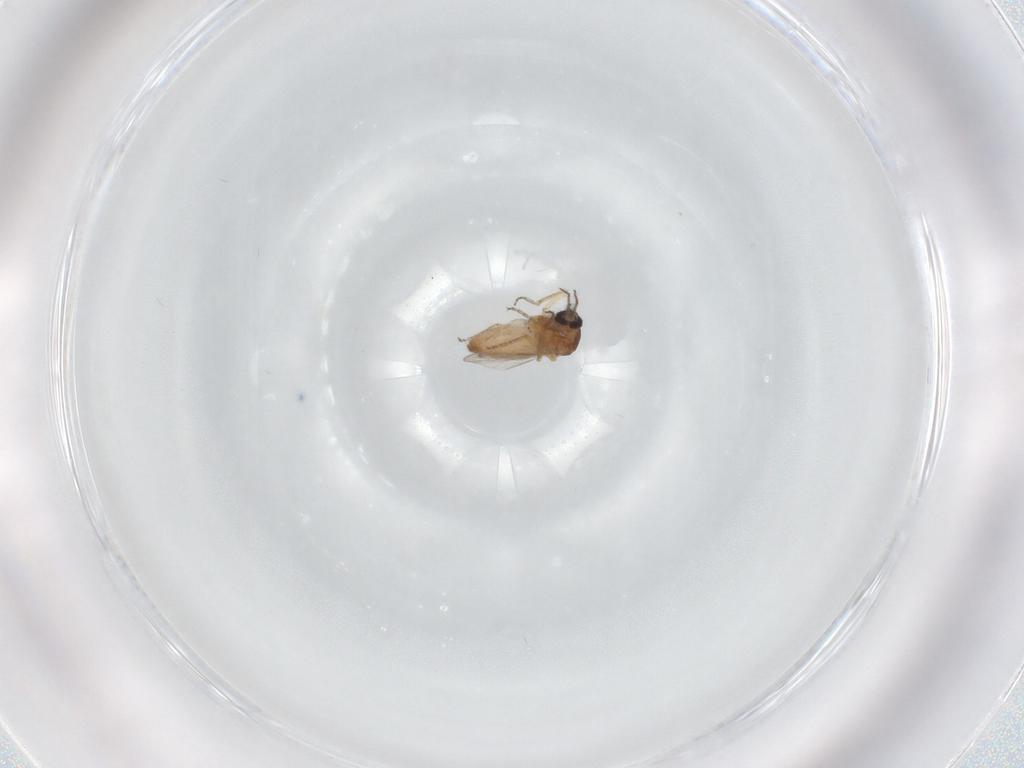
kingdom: Animalia
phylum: Arthropoda
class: Insecta
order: Diptera
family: Ceratopogonidae
